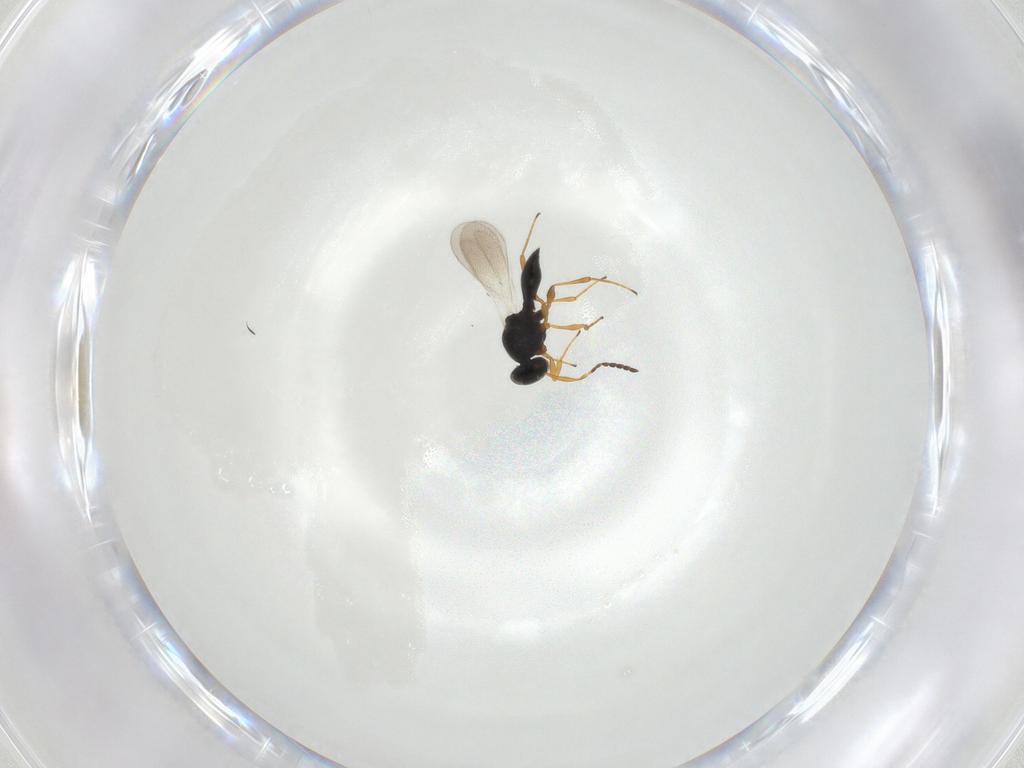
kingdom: Animalia
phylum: Arthropoda
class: Insecta
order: Hymenoptera
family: Platygastridae
